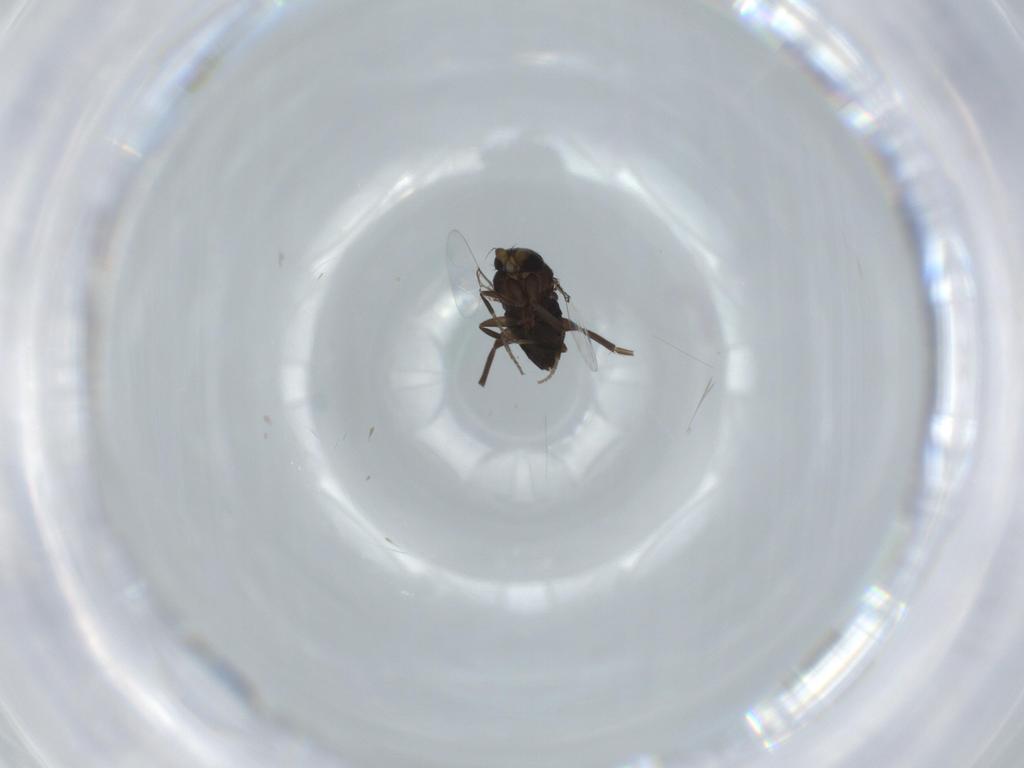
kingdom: Animalia
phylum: Arthropoda
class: Insecta
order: Diptera
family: Phoridae
